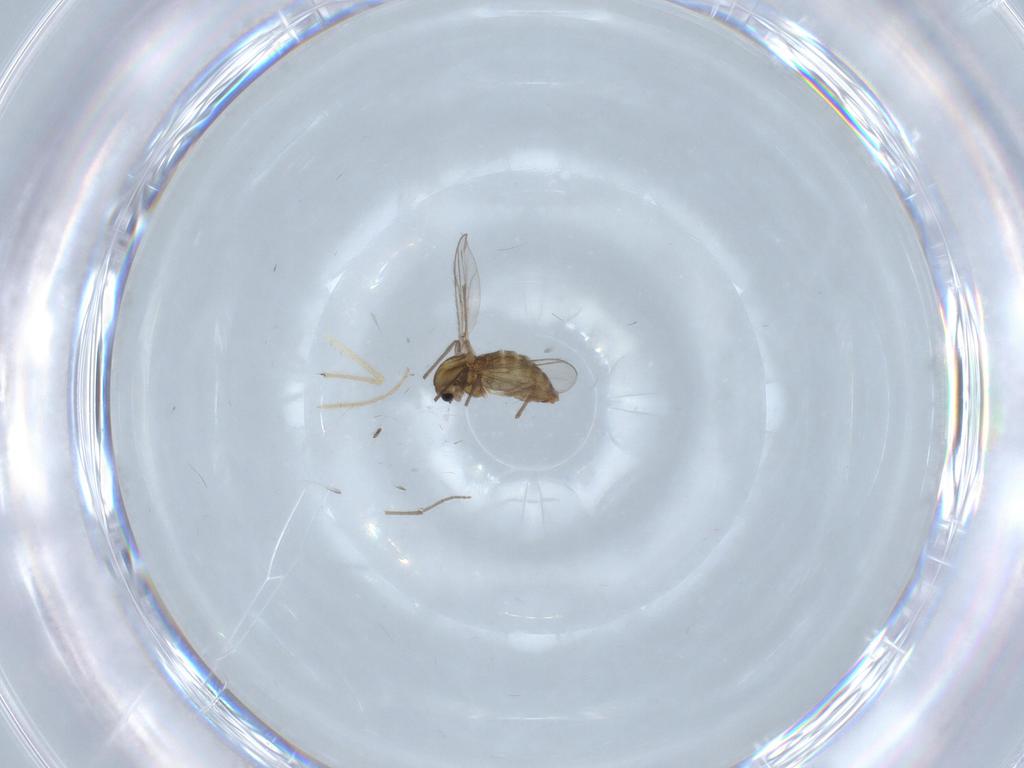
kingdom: Animalia
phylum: Arthropoda
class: Insecta
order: Diptera
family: Chironomidae
